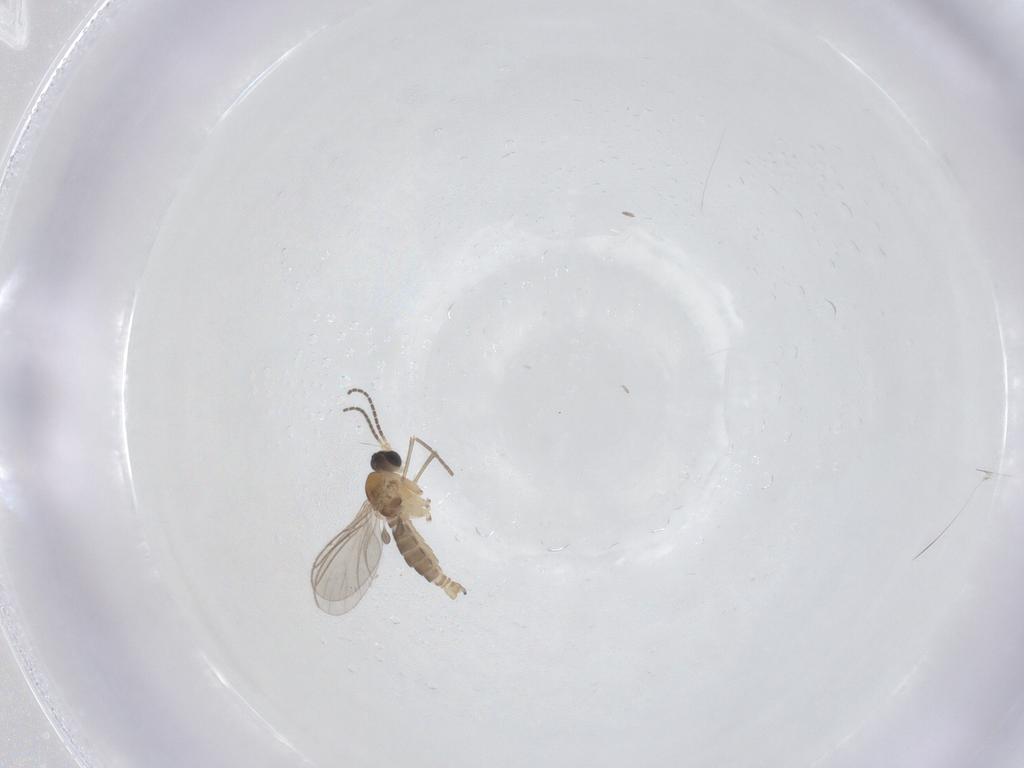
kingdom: Animalia
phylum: Arthropoda
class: Insecta
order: Diptera
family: Sciaridae
